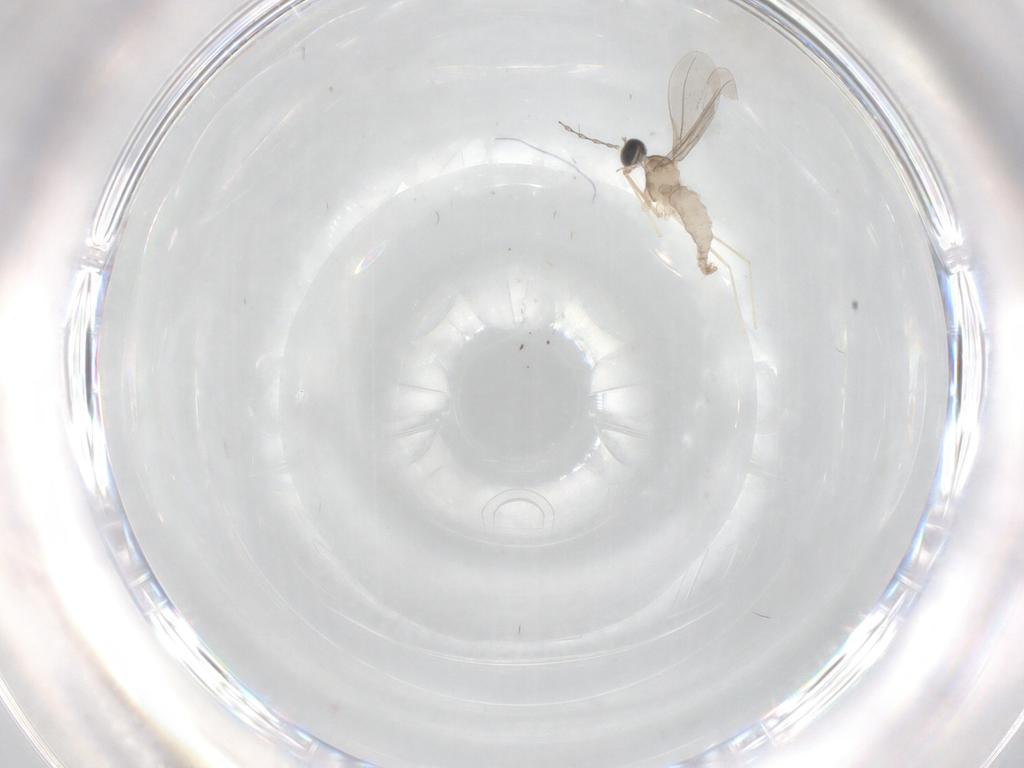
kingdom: Animalia
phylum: Arthropoda
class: Insecta
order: Diptera
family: Cecidomyiidae
